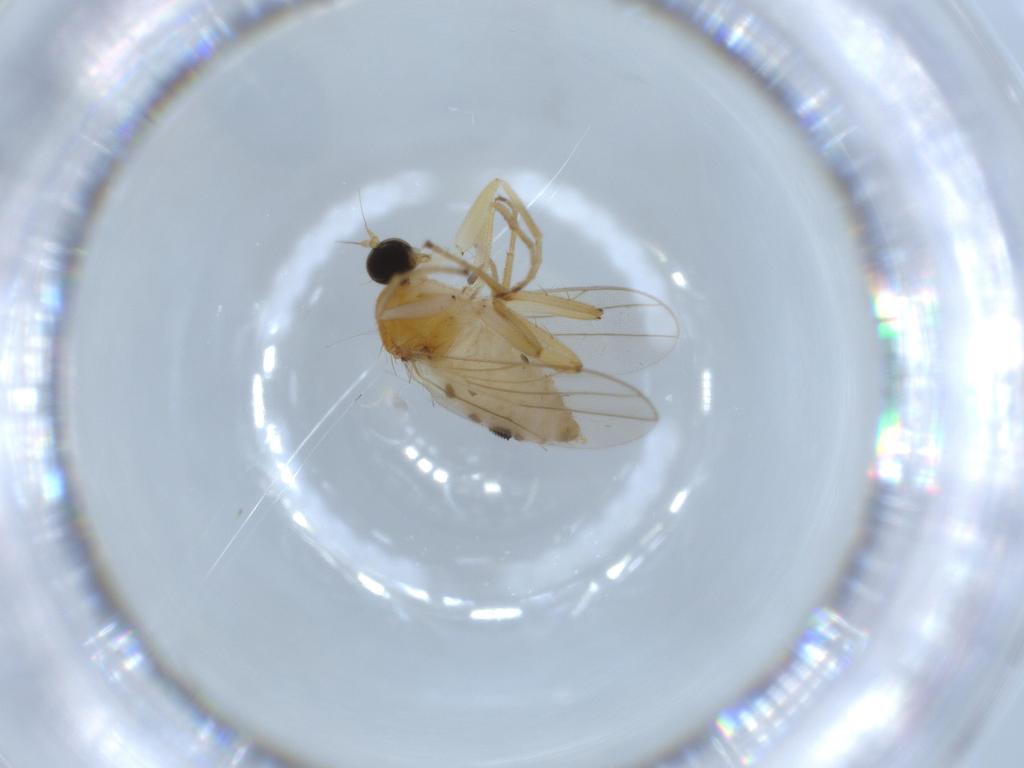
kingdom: Animalia
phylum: Arthropoda
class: Insecta
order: Diptera
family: Hybotidae
